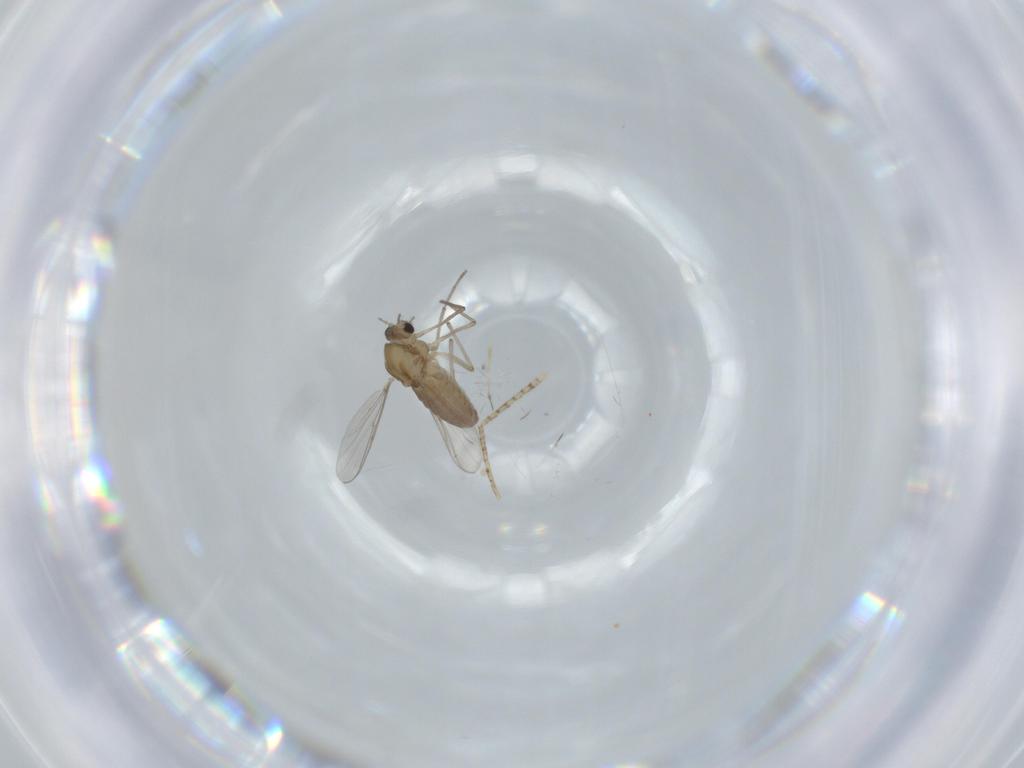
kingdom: Animalia
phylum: Arthropoda
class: Insecta
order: Diptera
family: Chironomidae
